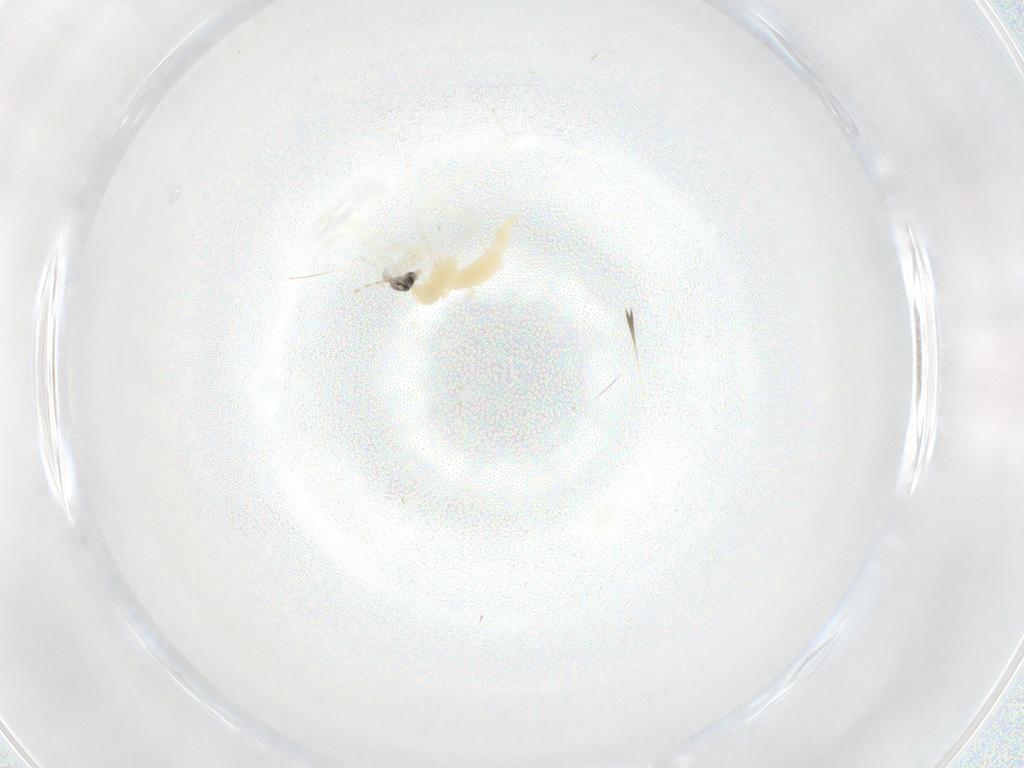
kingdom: Animalia
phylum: Arthropoda
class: Insecta
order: Diptera
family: Cecidomyiidae
